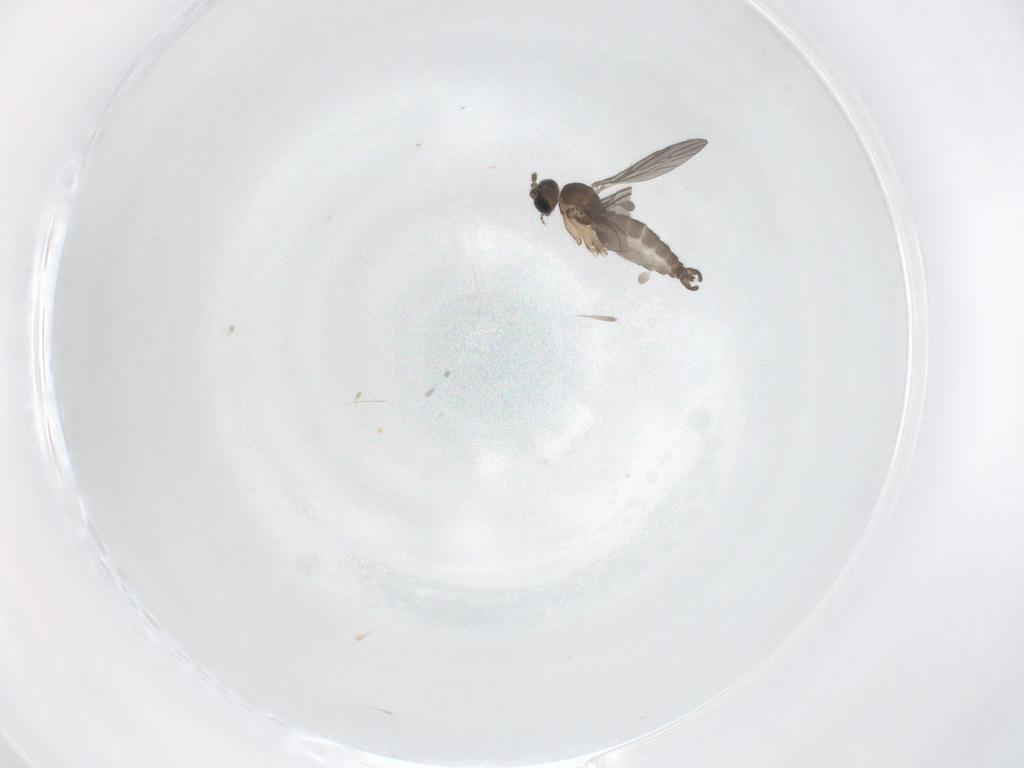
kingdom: Animalia
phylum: Arthropoda
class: Insecta
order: Diptera
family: Sciaridae
